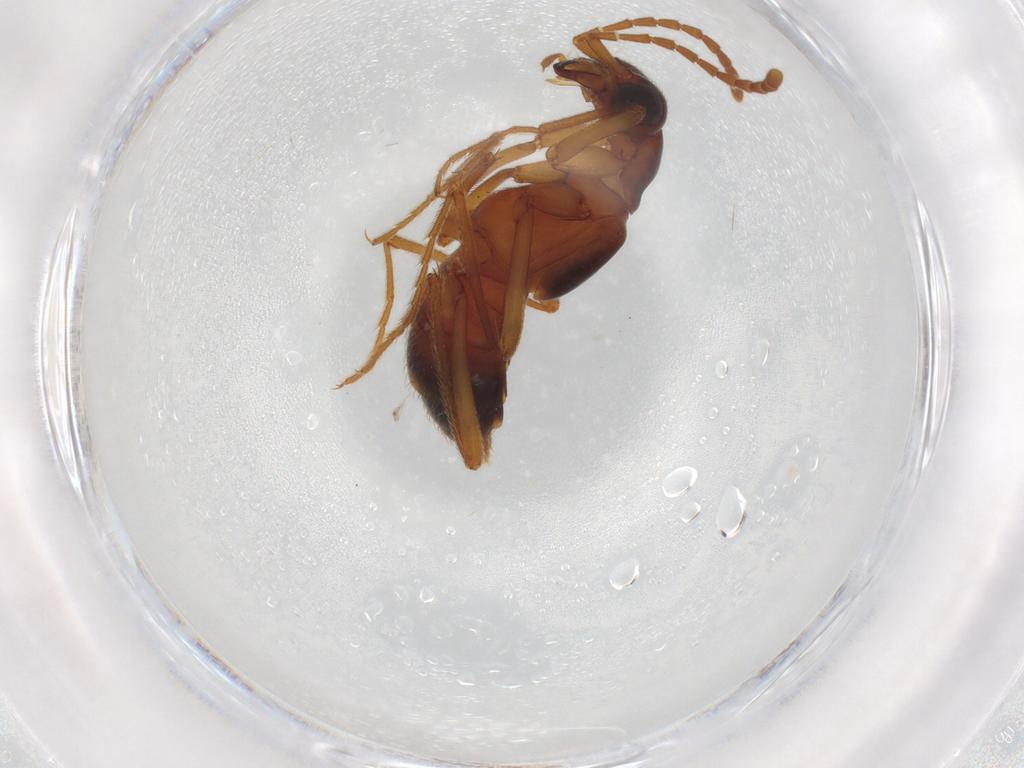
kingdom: Animalia
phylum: Arthropoda
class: Insecta
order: Coleoptera
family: Staphylinidae
